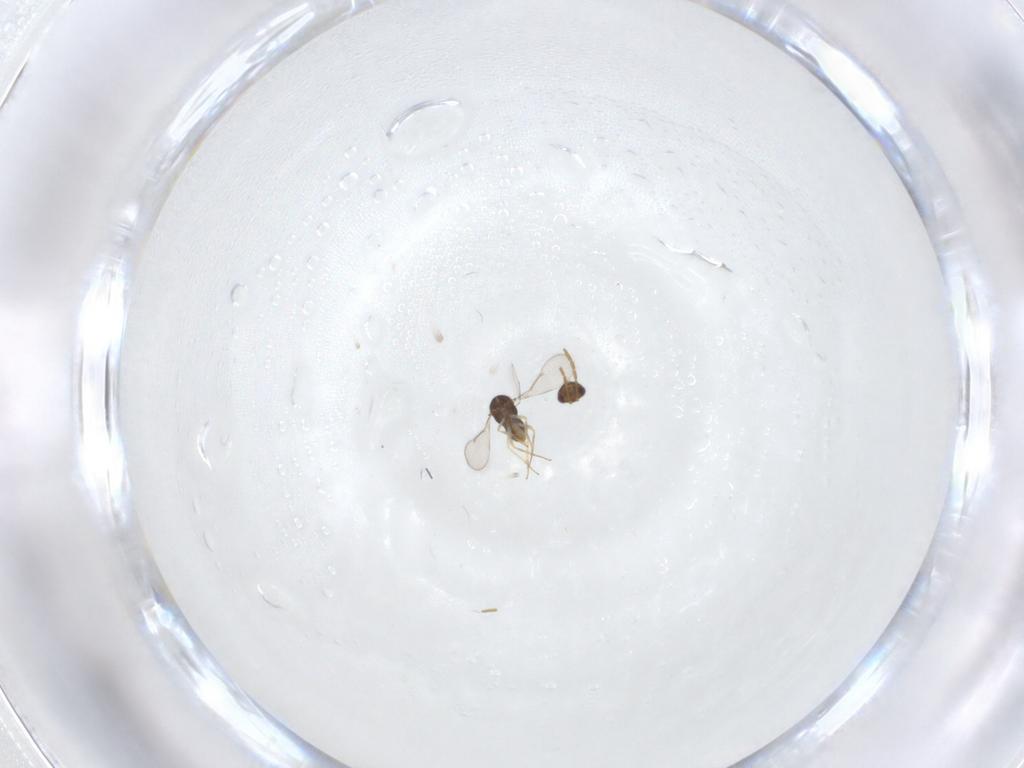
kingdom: Animalia
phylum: Arthropoda
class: Insecta
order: Hymenoptera
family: Aphelinidae
